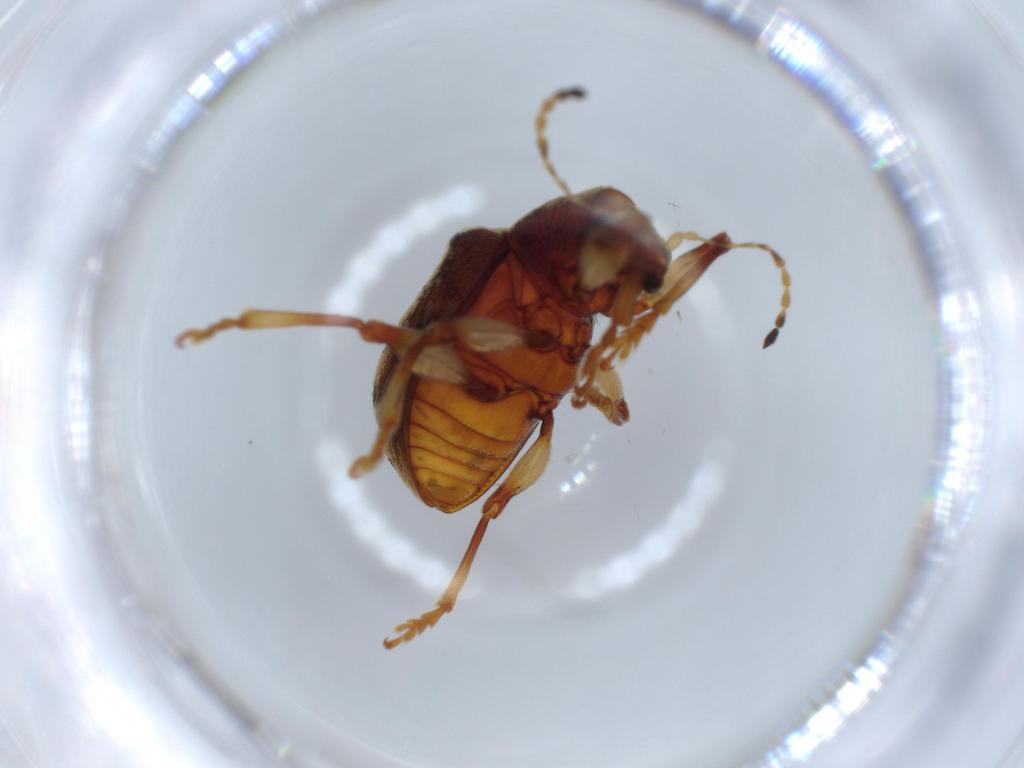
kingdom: Animalia
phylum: Arthropoda
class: Insecta
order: Coleoptera
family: Chrysomelidae
